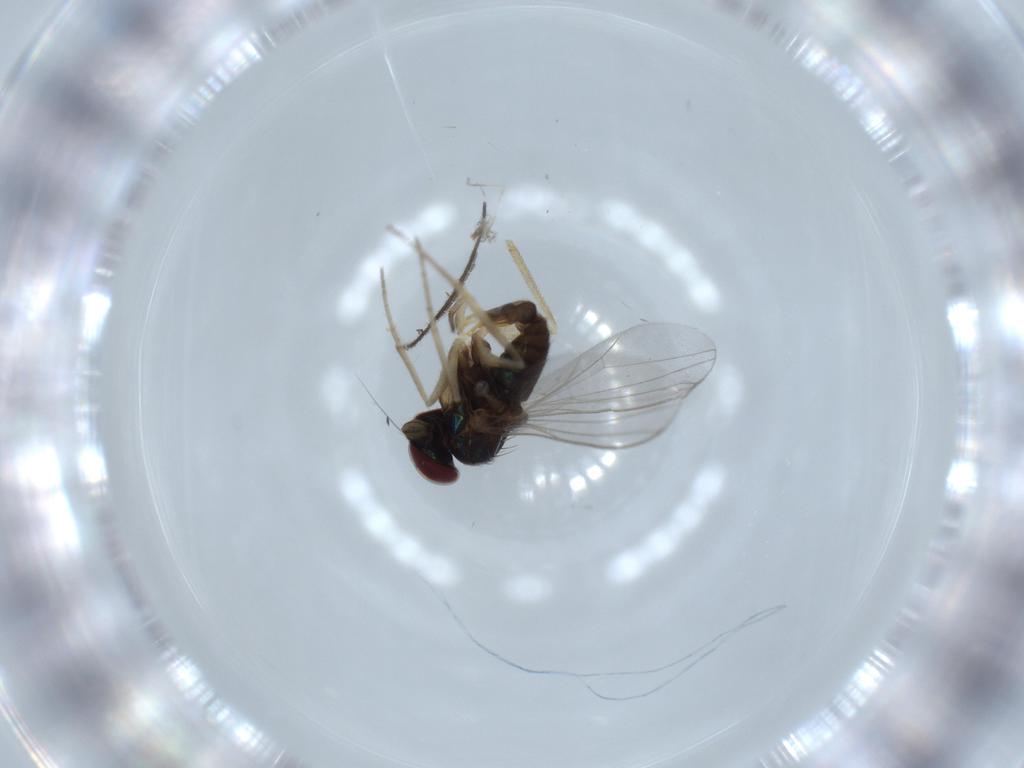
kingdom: Animalia
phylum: Arthropoda
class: Insecta
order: Diptera
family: Dolichopodidae
